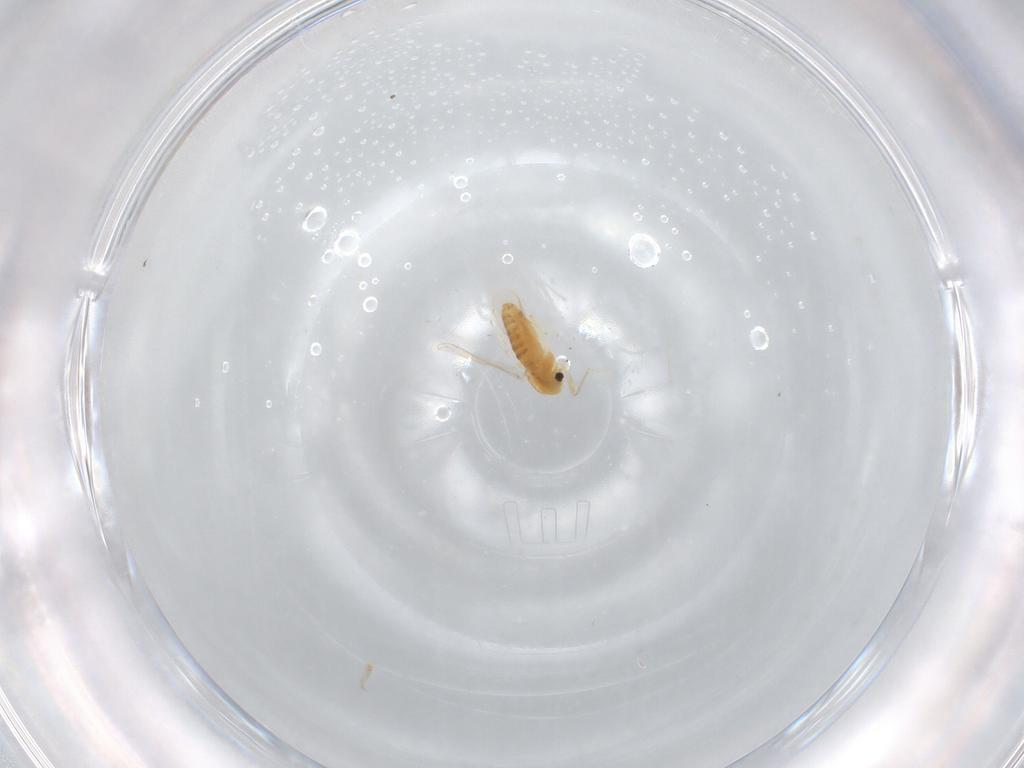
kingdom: Animalia
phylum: Arthropoda
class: Insecta
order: Diptera
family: Chironomidae
